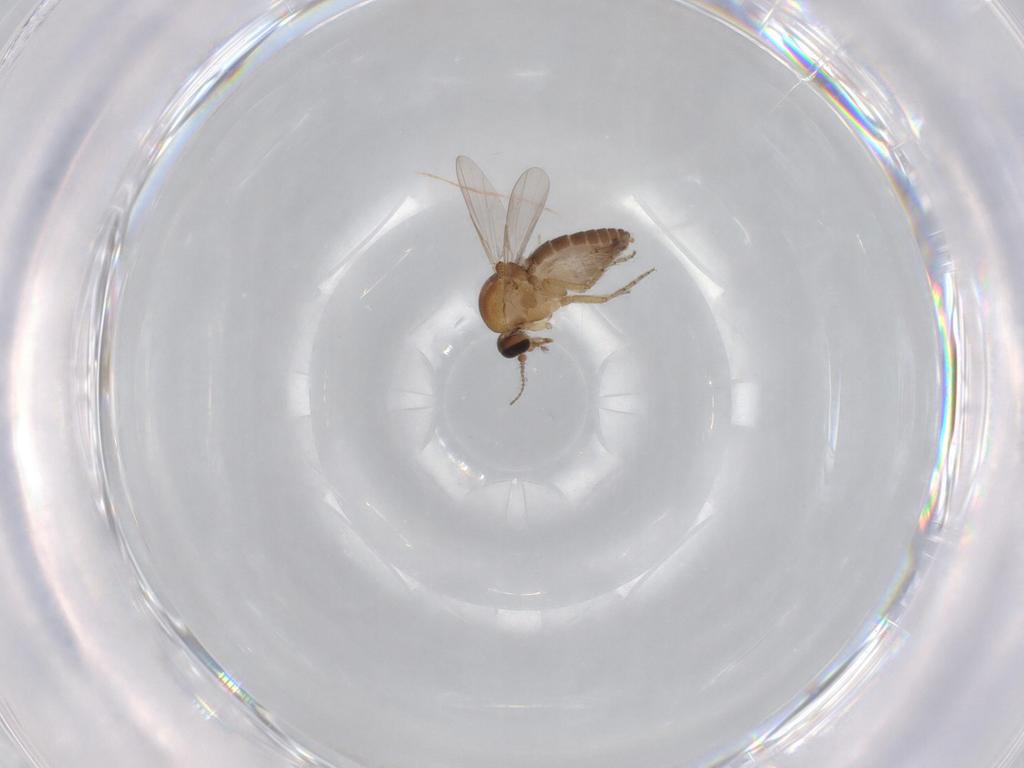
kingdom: Animalia
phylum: Arthropoda
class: Insecta
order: Diptera
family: Ceratopogonidae
